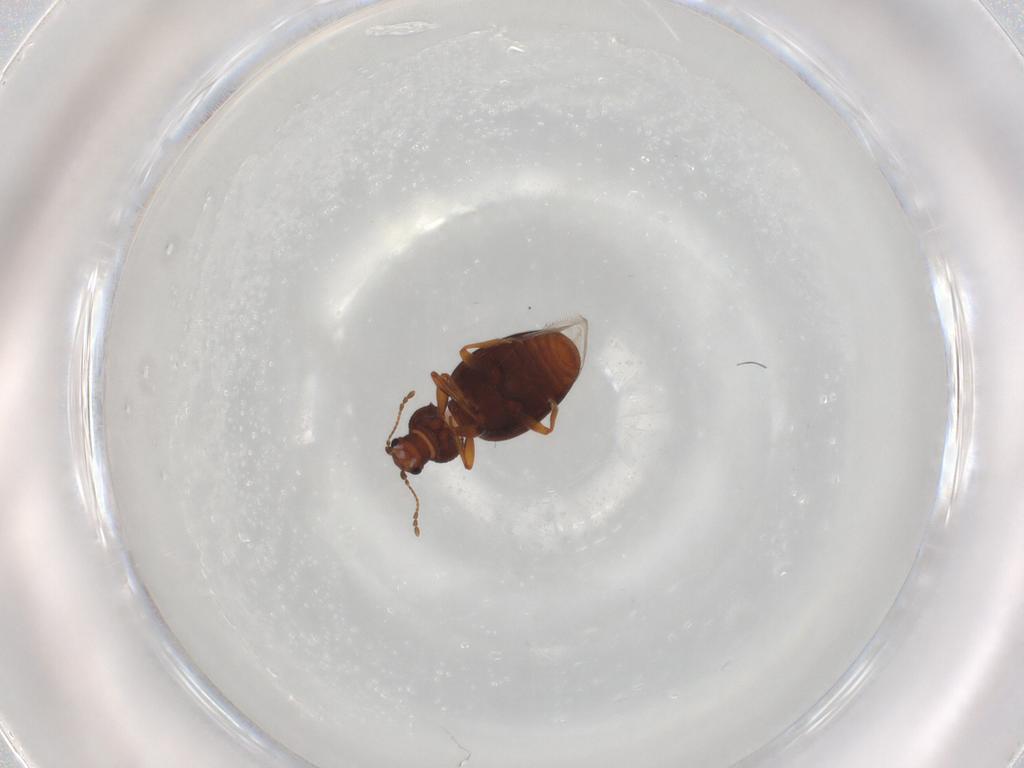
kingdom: Animalia
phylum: Arthropoda
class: Insecta
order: Coleoptera
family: Latridiidae
